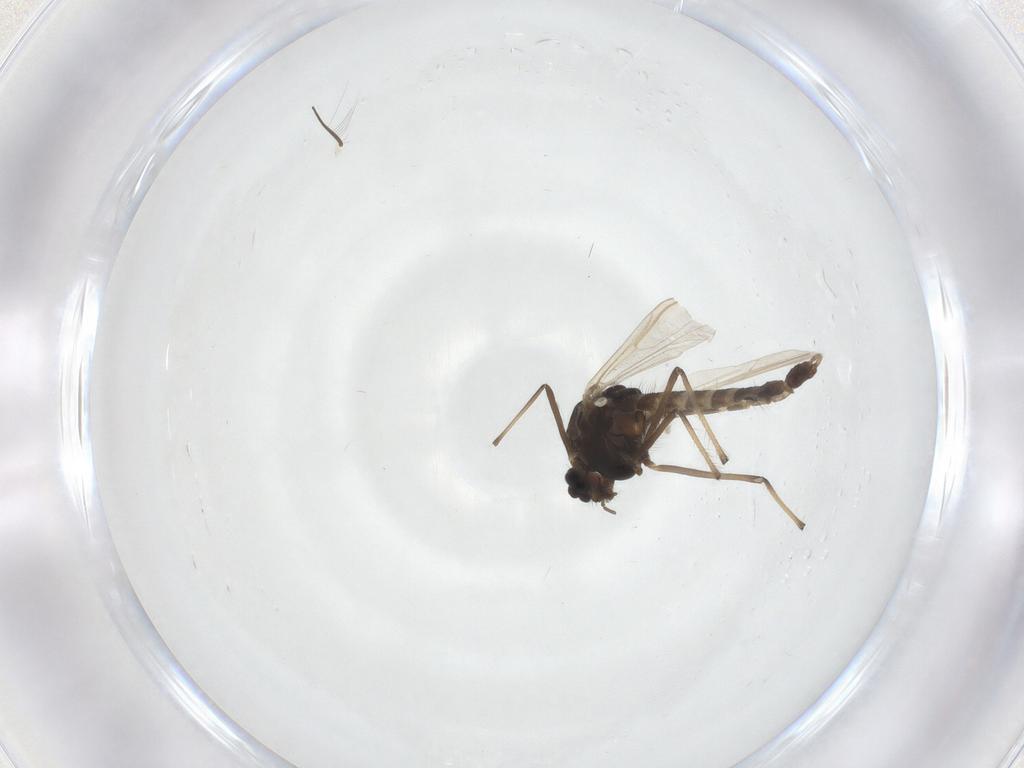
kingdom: Animalia
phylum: Arthropoda
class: Insecta
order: Diptera
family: Chironomidae
